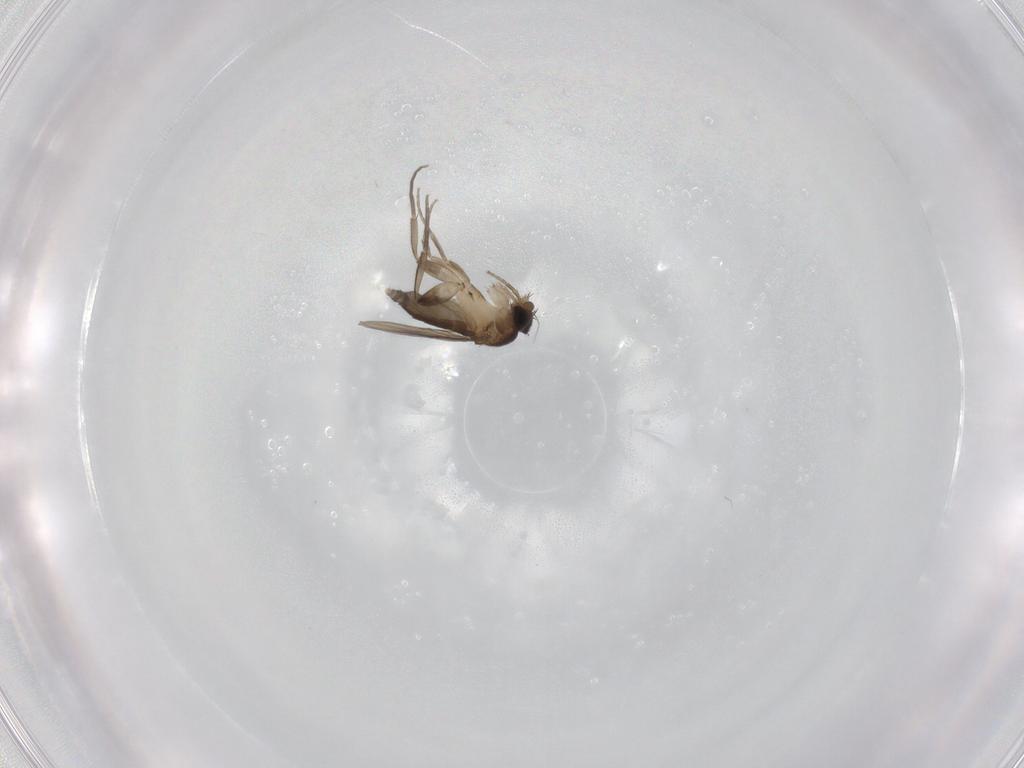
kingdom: Animalia
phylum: Arthropoda
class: Insecta
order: Diptera
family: Phoridae
